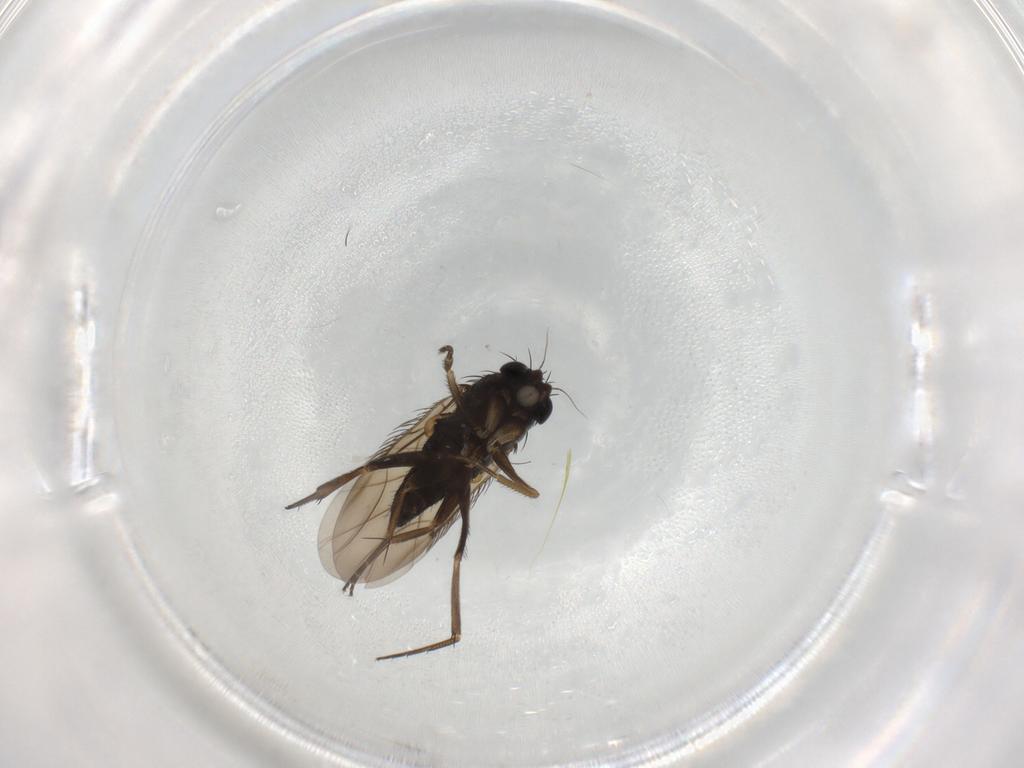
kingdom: Animalia
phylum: Arthropoda
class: Insecta
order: Diptera
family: Phoridae
